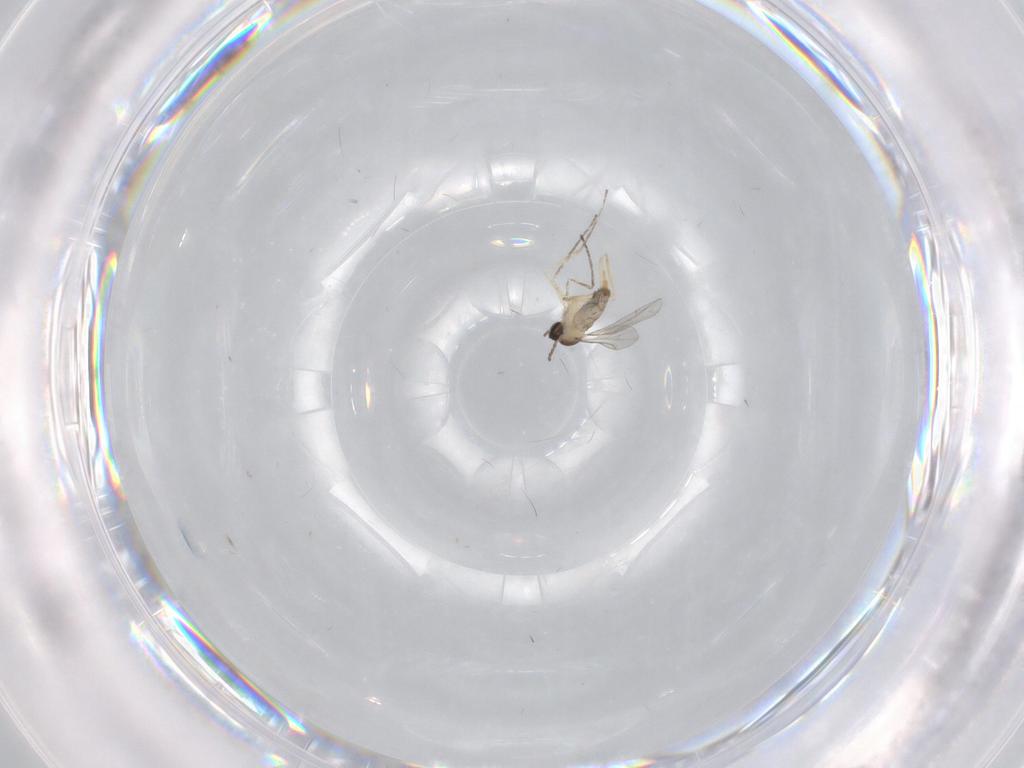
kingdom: Animalia
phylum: Arthropoda
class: Insecta
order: Diptera
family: Cecidomyiidae
